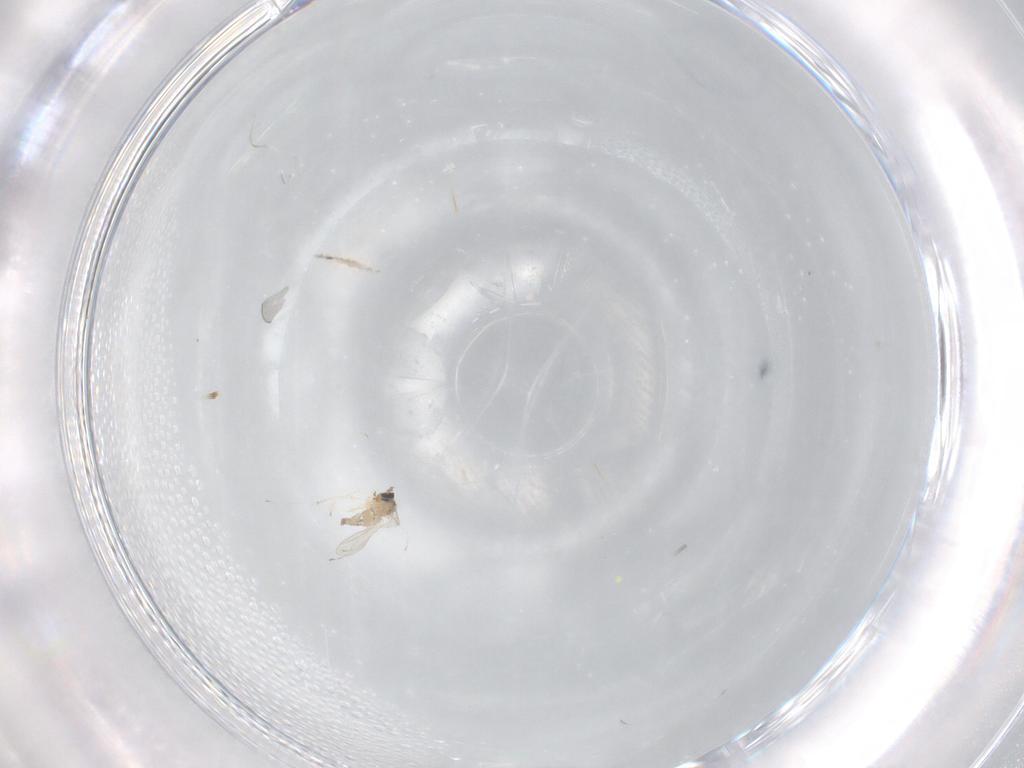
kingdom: Animalia
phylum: Arthropoda
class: Insecta
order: Diptera
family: Cecidomyiidae
